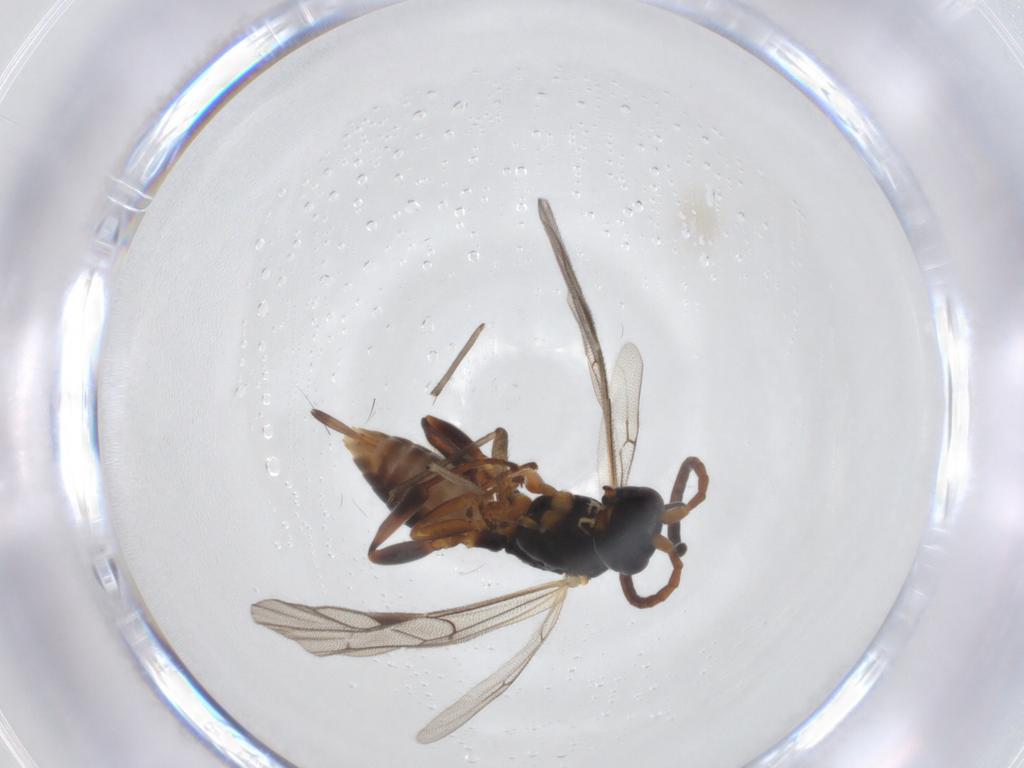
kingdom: Animalia
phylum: Arthropoda
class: Insecta
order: Hymenoptera
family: Ichneumonidae
